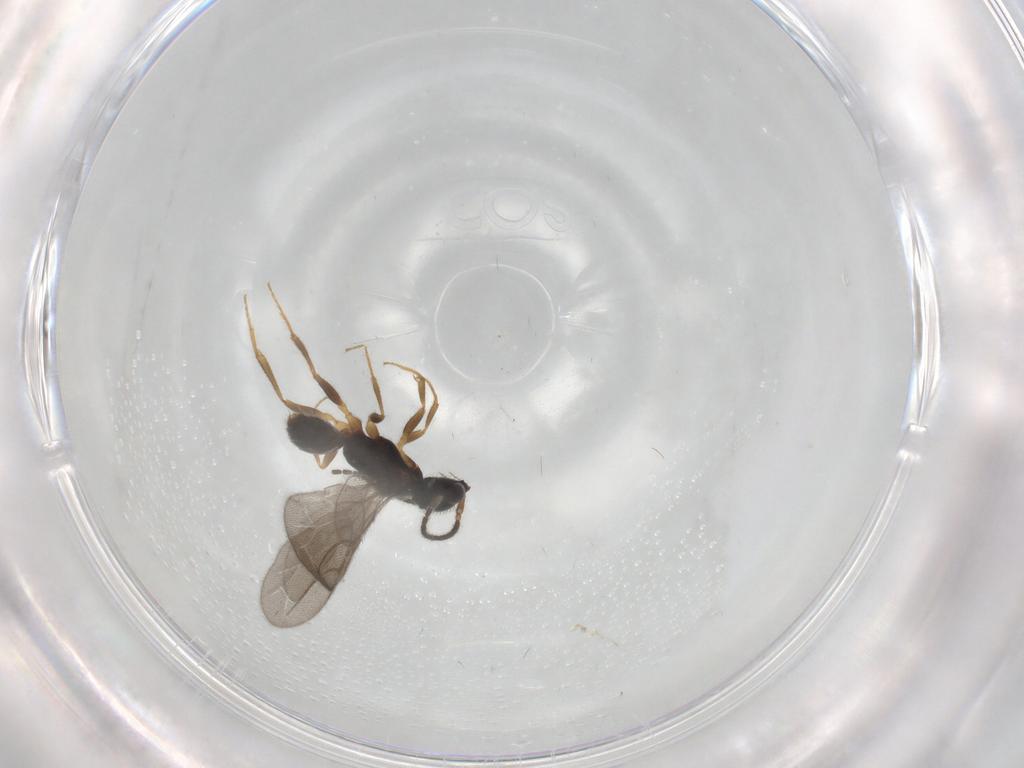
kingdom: Animalia
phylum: Arthropoda
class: Insecta
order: Hymenoptera
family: Bethylidae
